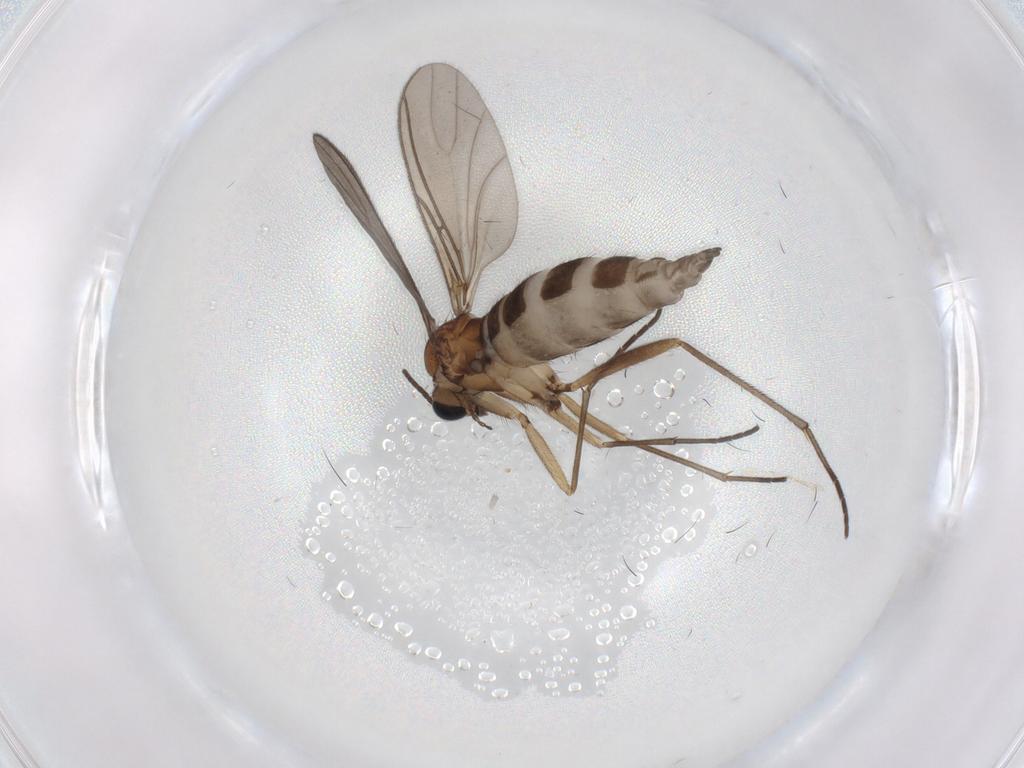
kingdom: Animalia
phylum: Arthropoda
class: Insecta
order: Diptera
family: Sciaridae
